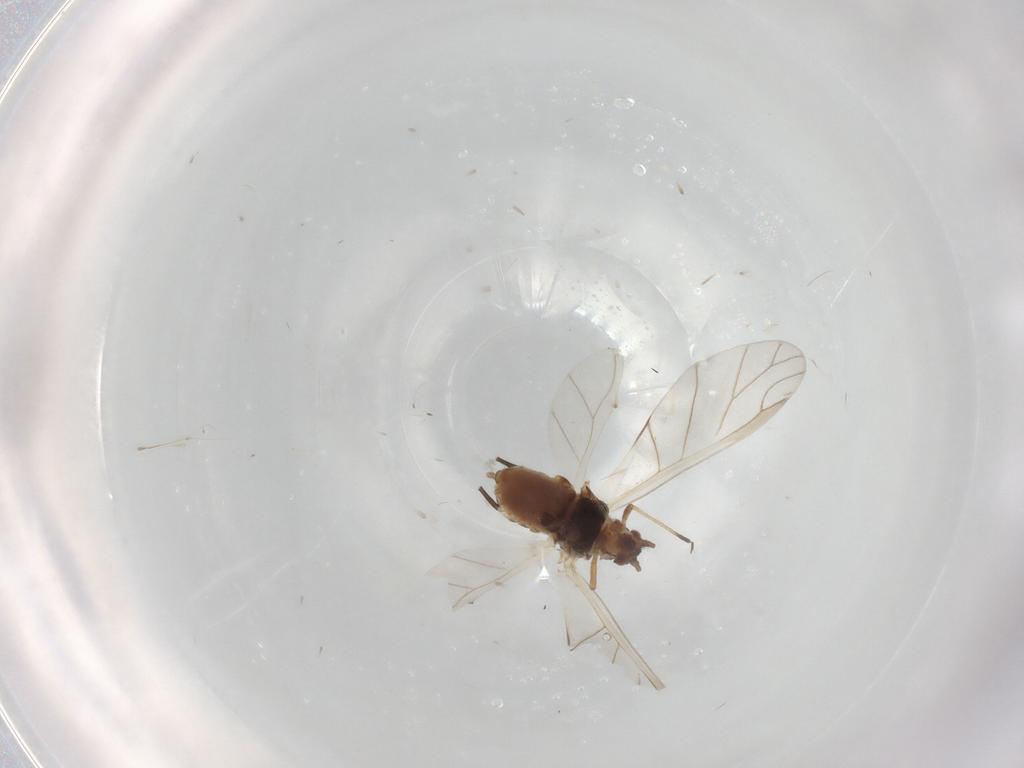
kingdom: Animalia
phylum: Arthropoda
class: Insecta
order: Hemiptera
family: Aphididae
